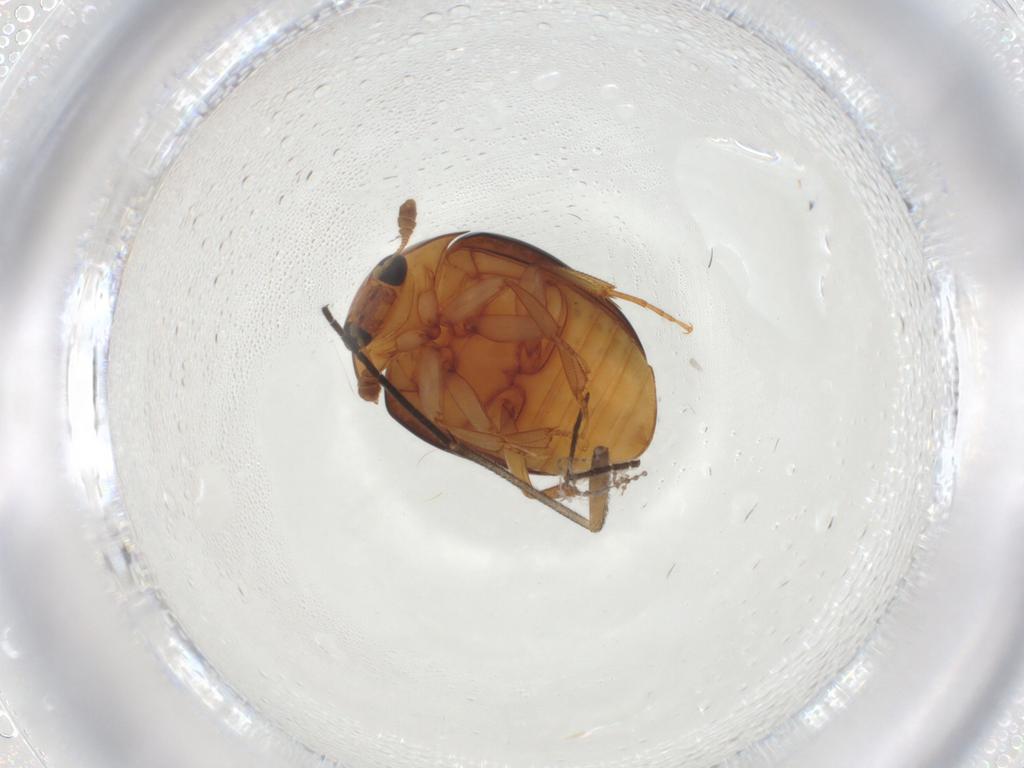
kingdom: Animalia
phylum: Arthropoda
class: Insecta
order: Coleoptera
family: Nitidulidae
